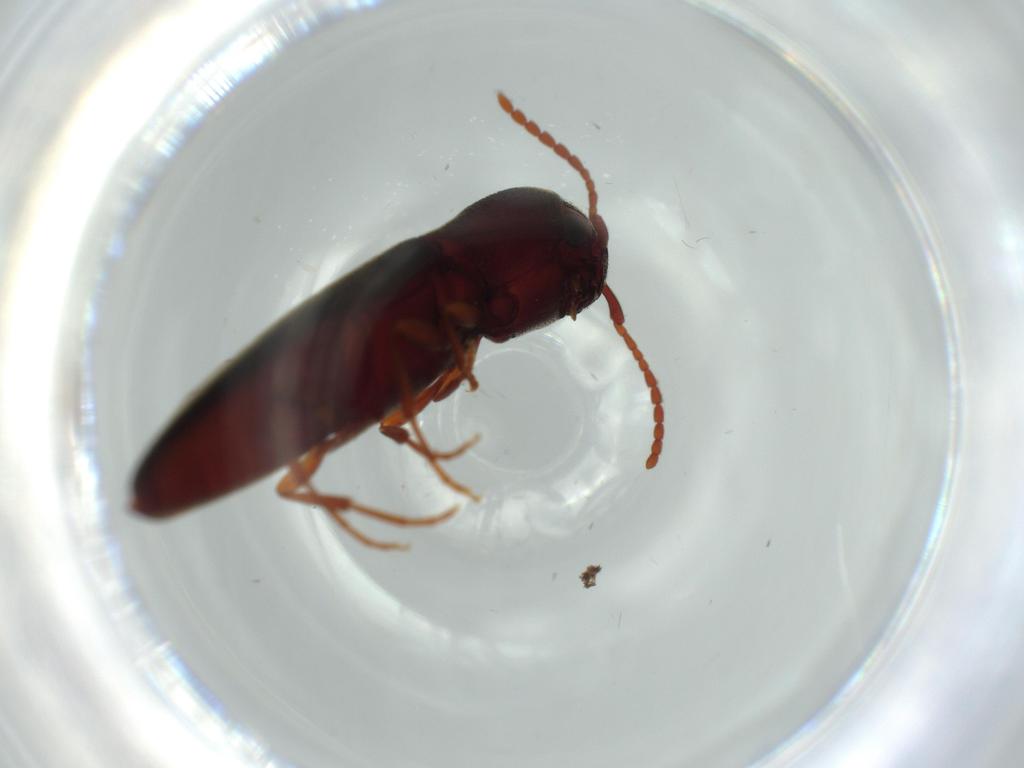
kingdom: Animalia
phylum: Arthropoda
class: Insecta
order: Coleoptera
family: Eucnemidae
